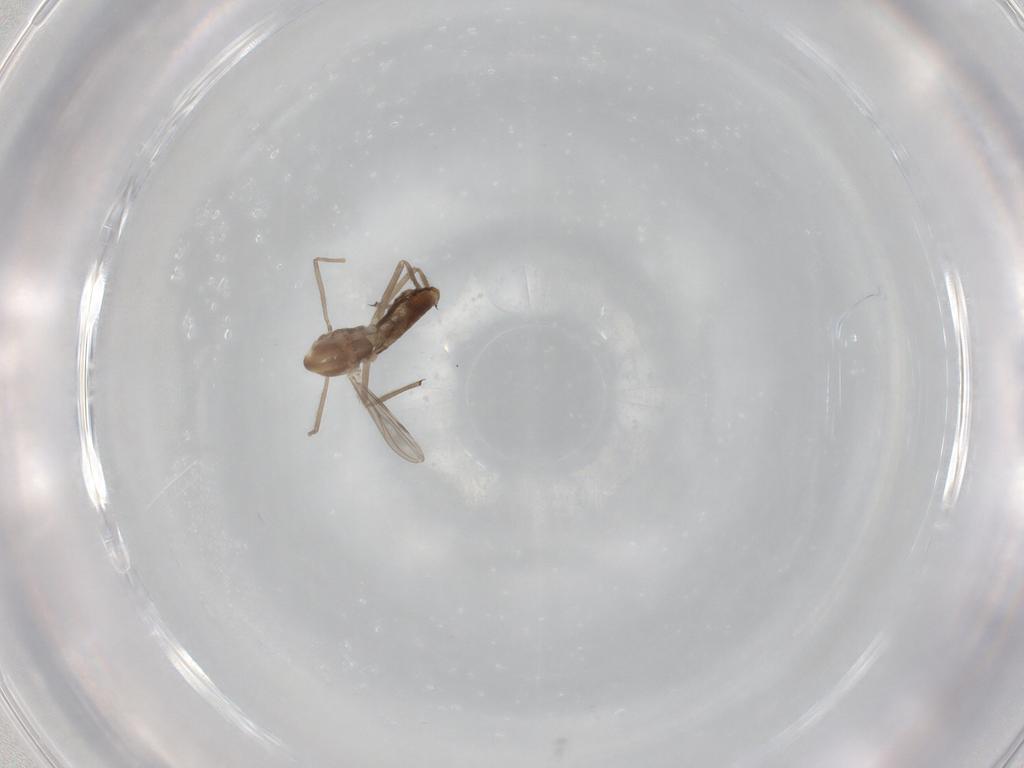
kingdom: Animalia
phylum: Arthropoda
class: Insecta
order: Diptera
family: Chironomidae
